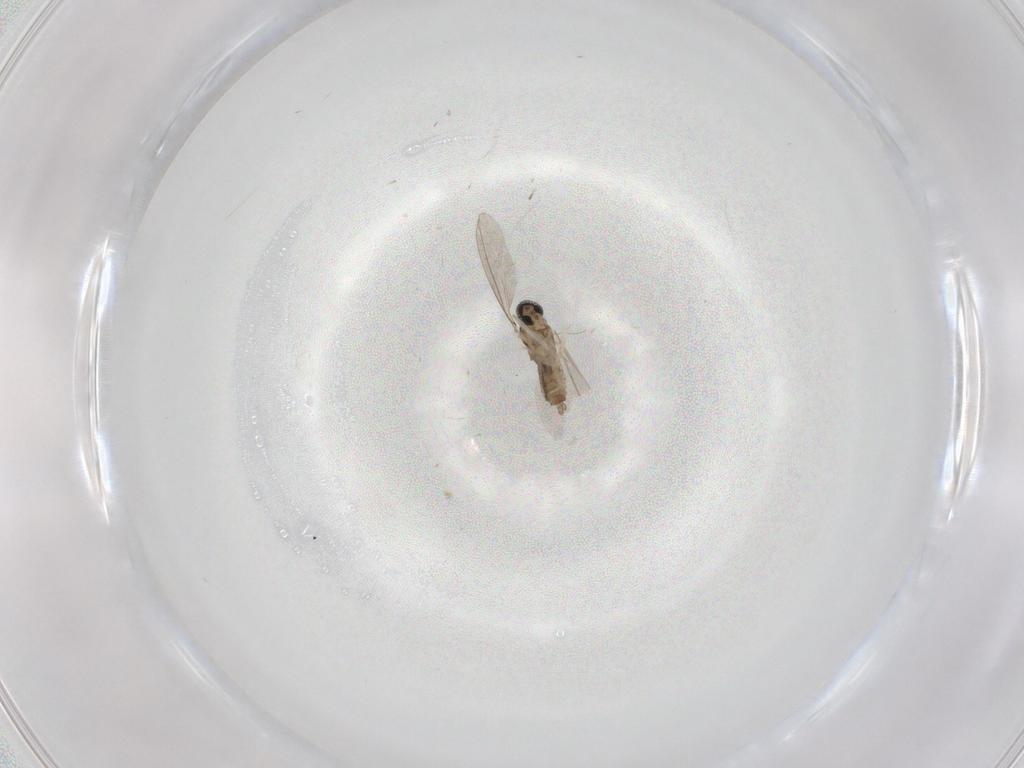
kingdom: Animalia
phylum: Arthropoda
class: Insecta
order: Diptera
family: Cecidomyiidae
